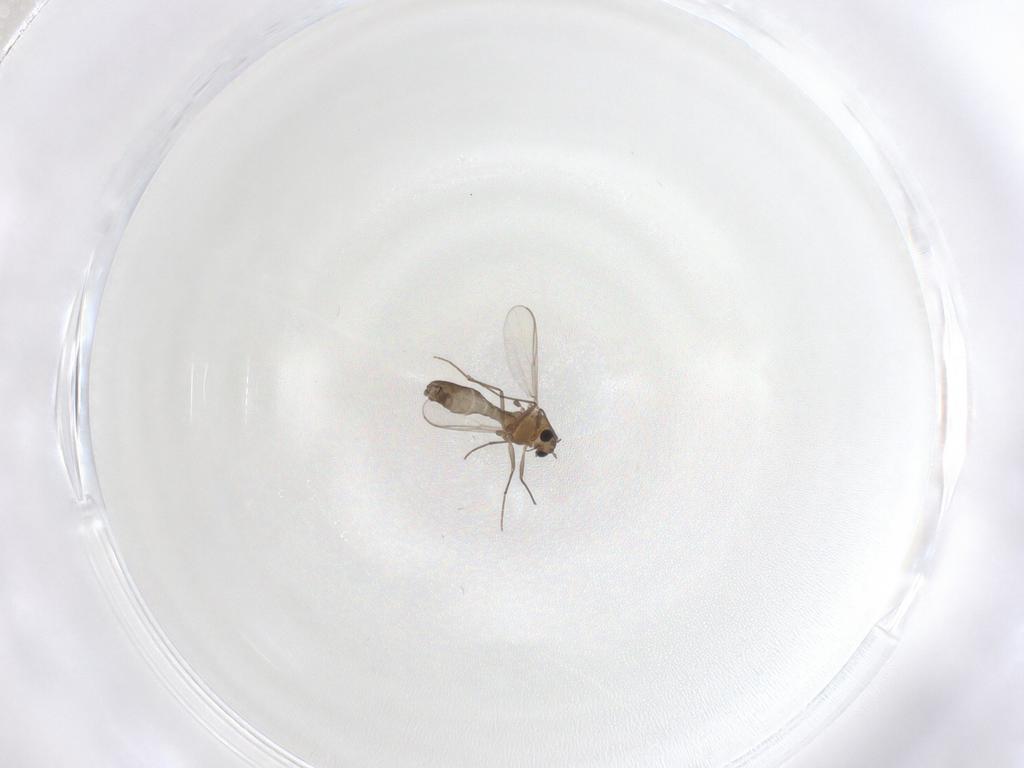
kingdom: Animalia
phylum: Arthropoda
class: Insecta
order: Diptera
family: Chironomidae
